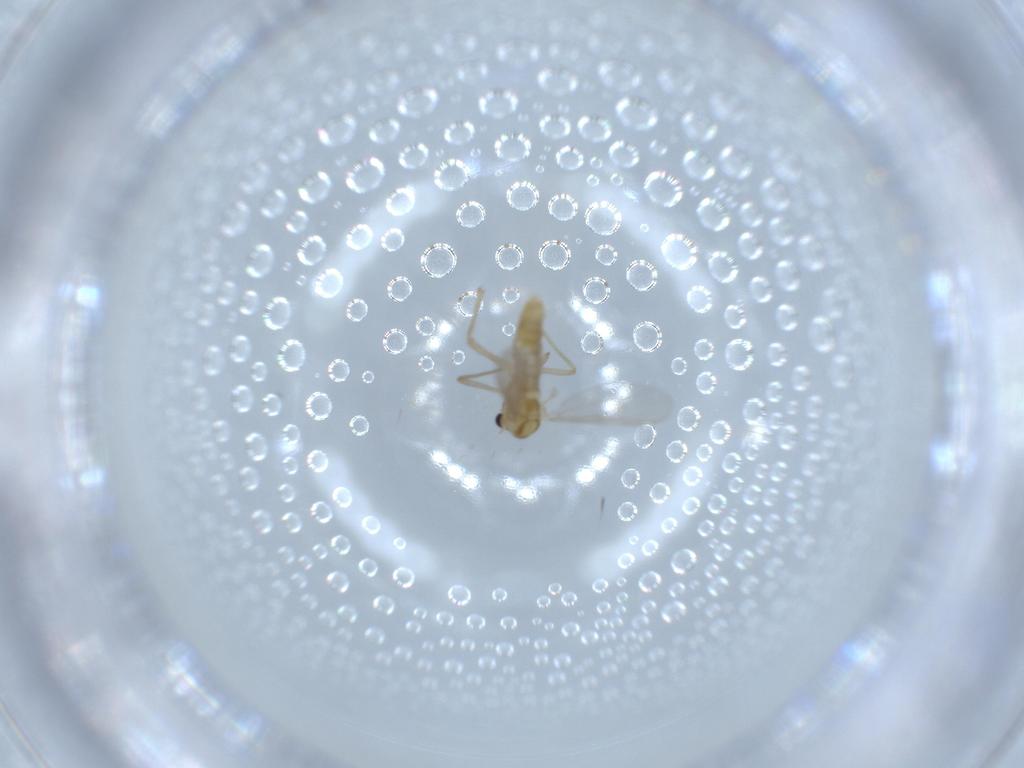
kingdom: Animalia
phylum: Arthropoda
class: Insecta
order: Diptera
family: Chironomidae
